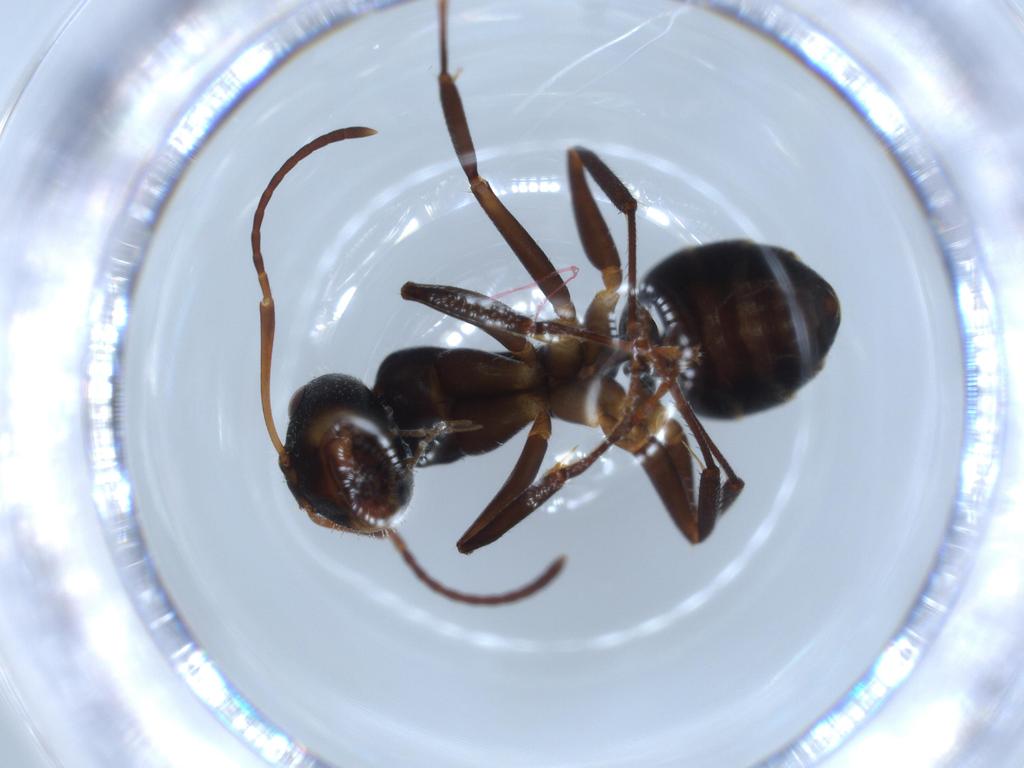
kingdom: Animalia
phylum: Arthropoda
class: Insecta
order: Hymenoptera
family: Formicidae
